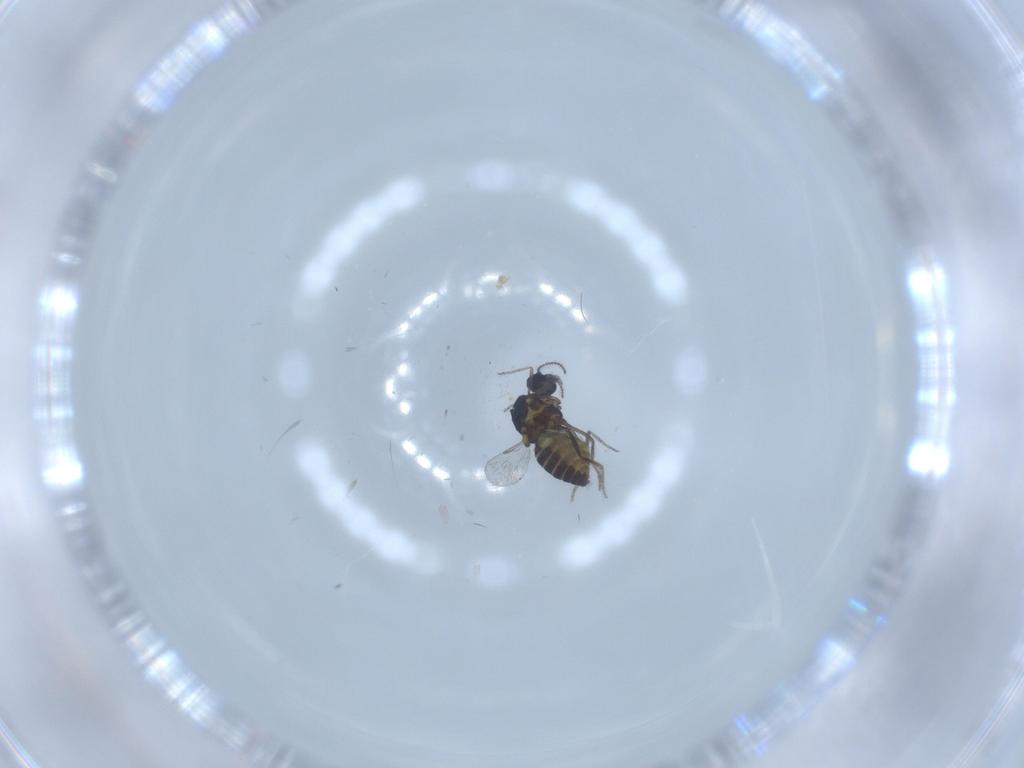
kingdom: Animalia
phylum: Arthropoda
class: Insecta
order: Diptera
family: Ceratopogonidae
